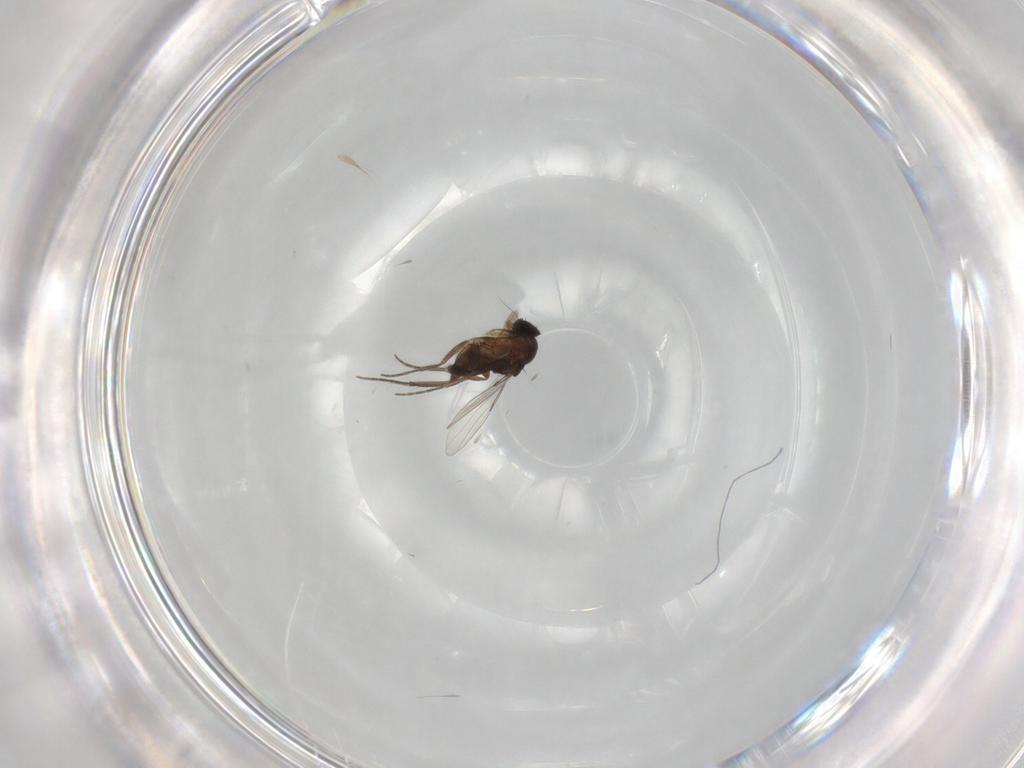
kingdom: Animalia
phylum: Arthropoda
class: Insecta
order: Diptera
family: Phoridae
